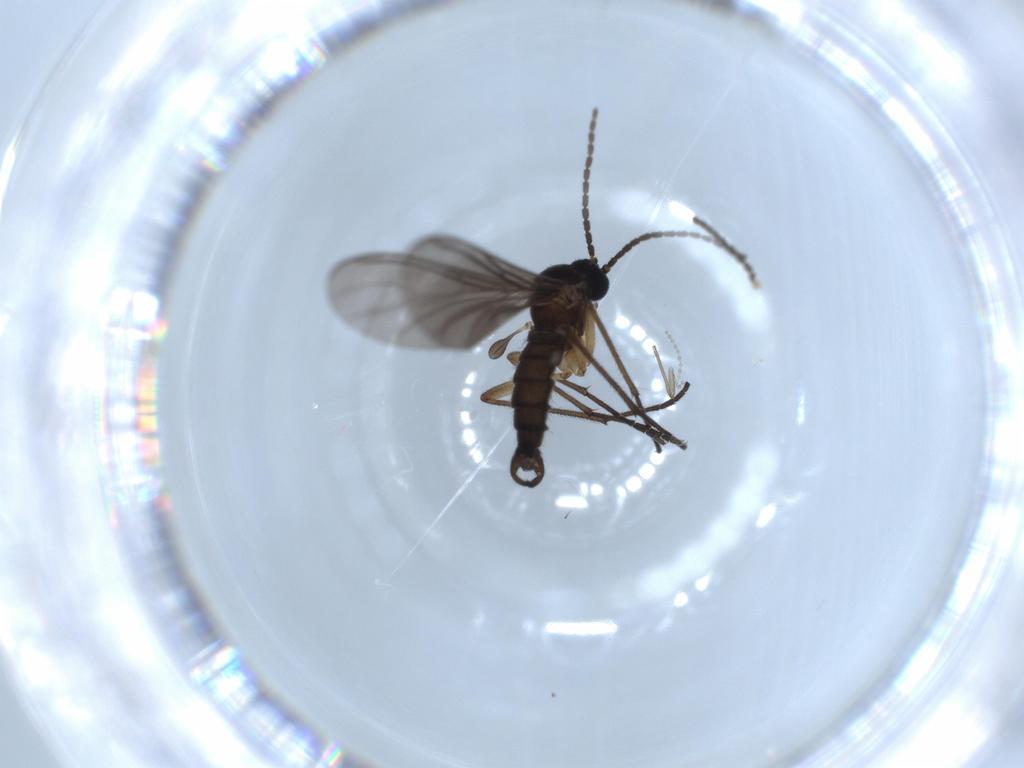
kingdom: Animalia
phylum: Arthropoda
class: Insecta
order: Diptera
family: Chironomidae
